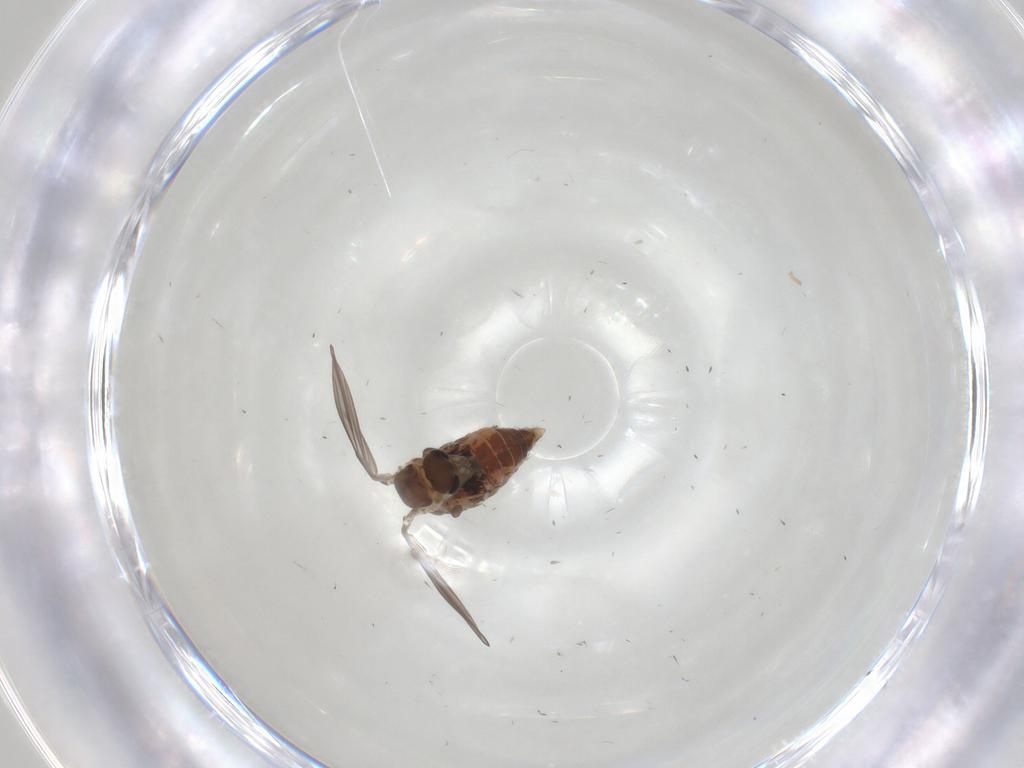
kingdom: Animalia
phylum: Arthropoda
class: Insecta
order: Diptera
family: Psychodidae
